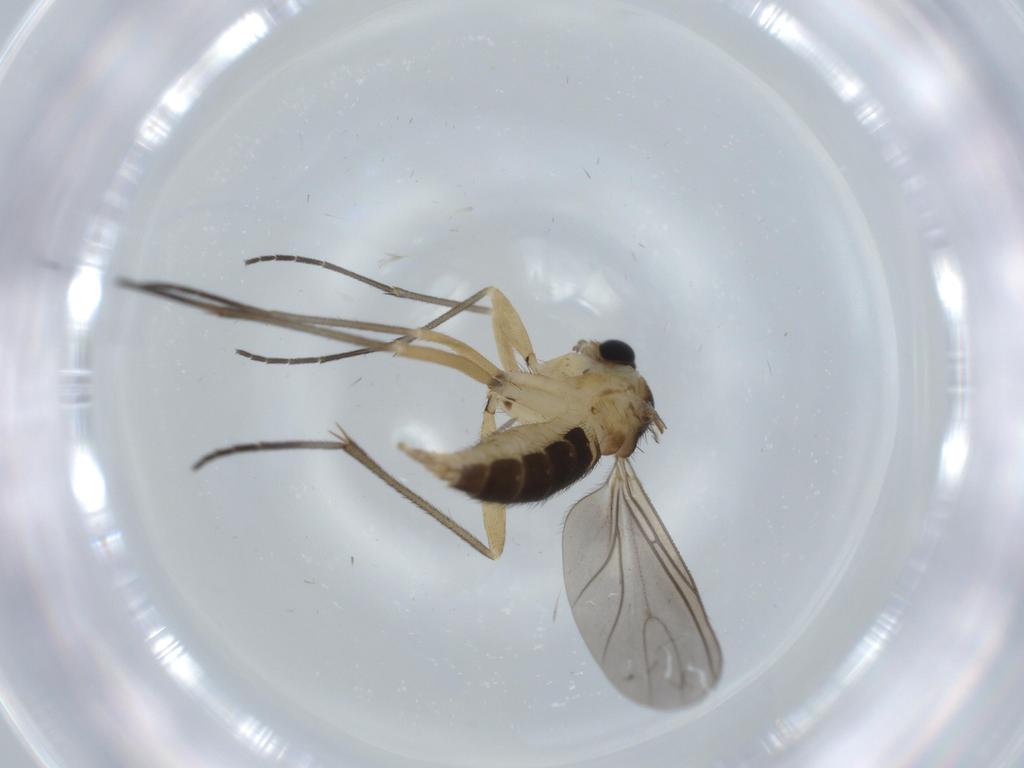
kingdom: Animalia
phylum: Arthropoda
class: Insecta
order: Diptera
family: Sciaridae
